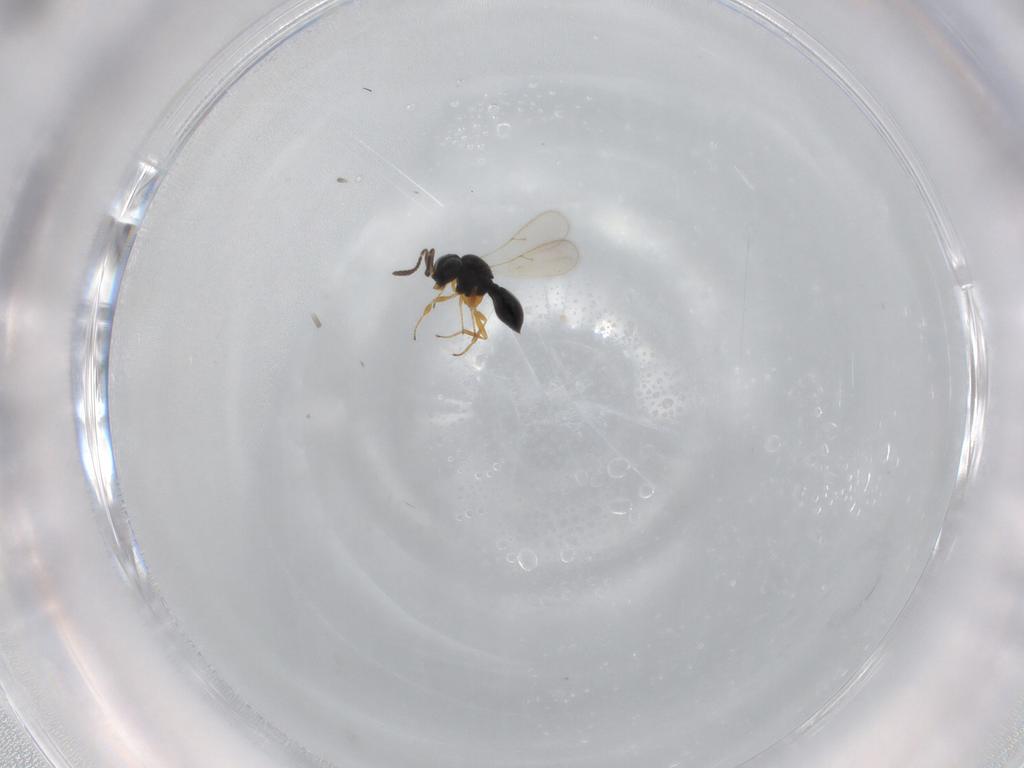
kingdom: Animalia
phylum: Arthropoda
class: Insecta
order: Hymenoptera
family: Scelionidae
